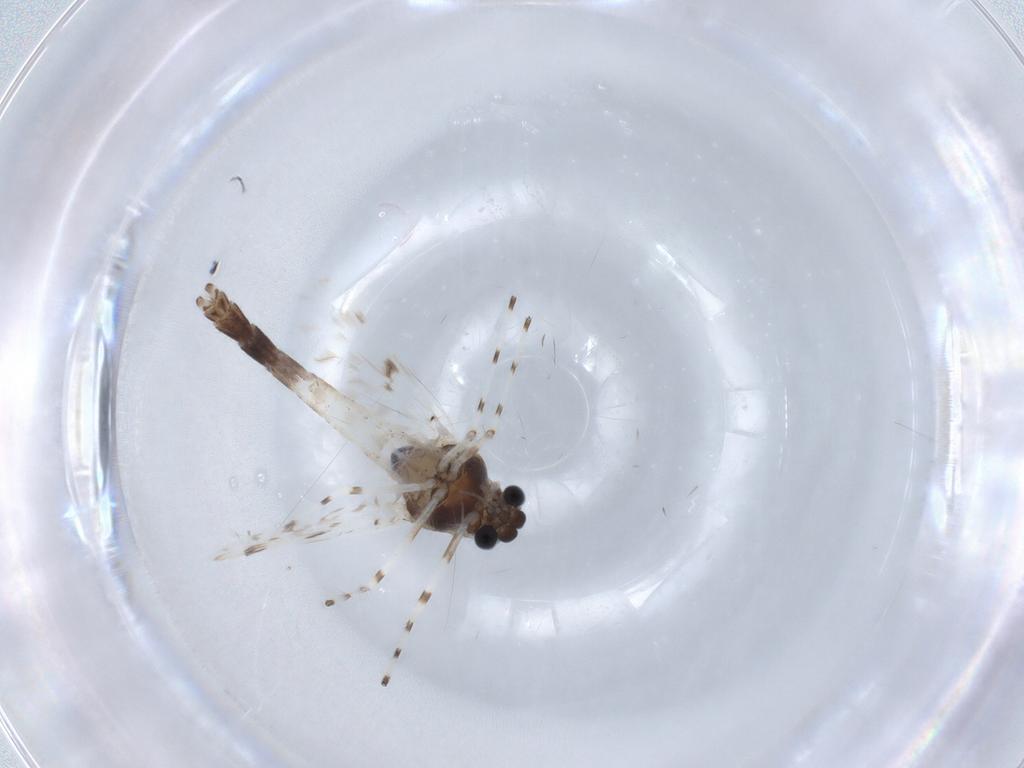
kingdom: Animalia
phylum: Arthropoda
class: Insecta
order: Diptera
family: Chironomidae
